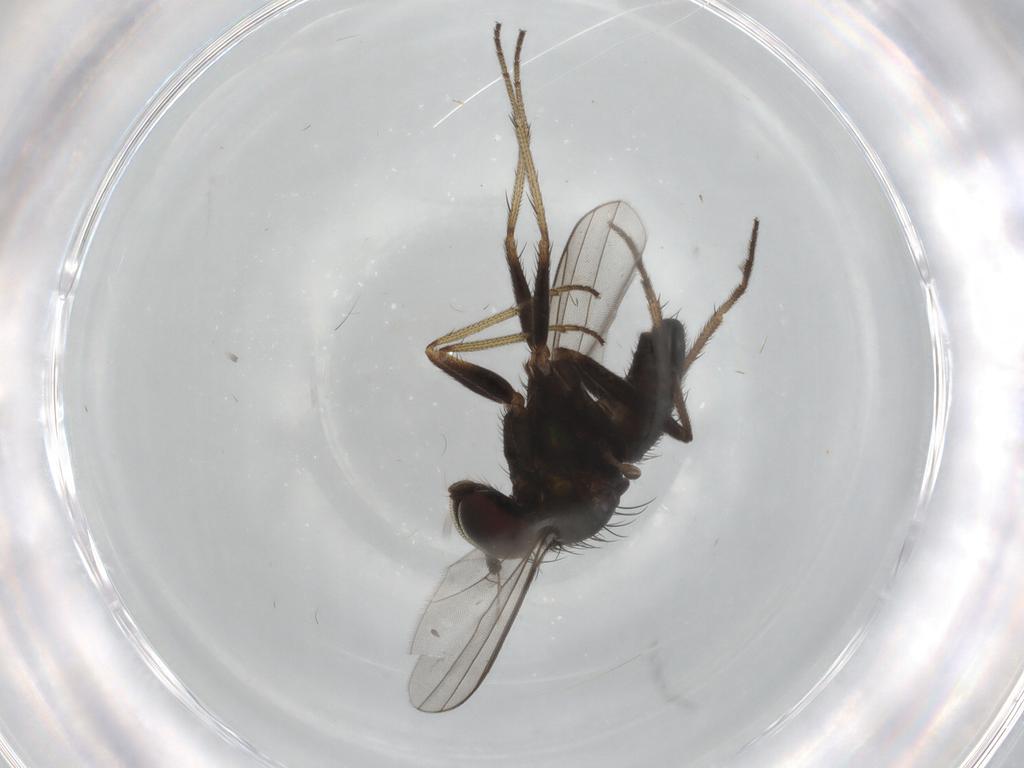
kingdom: Animalia
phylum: Arthropoda
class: Insecta
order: Diptera
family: Dolichopodidae
